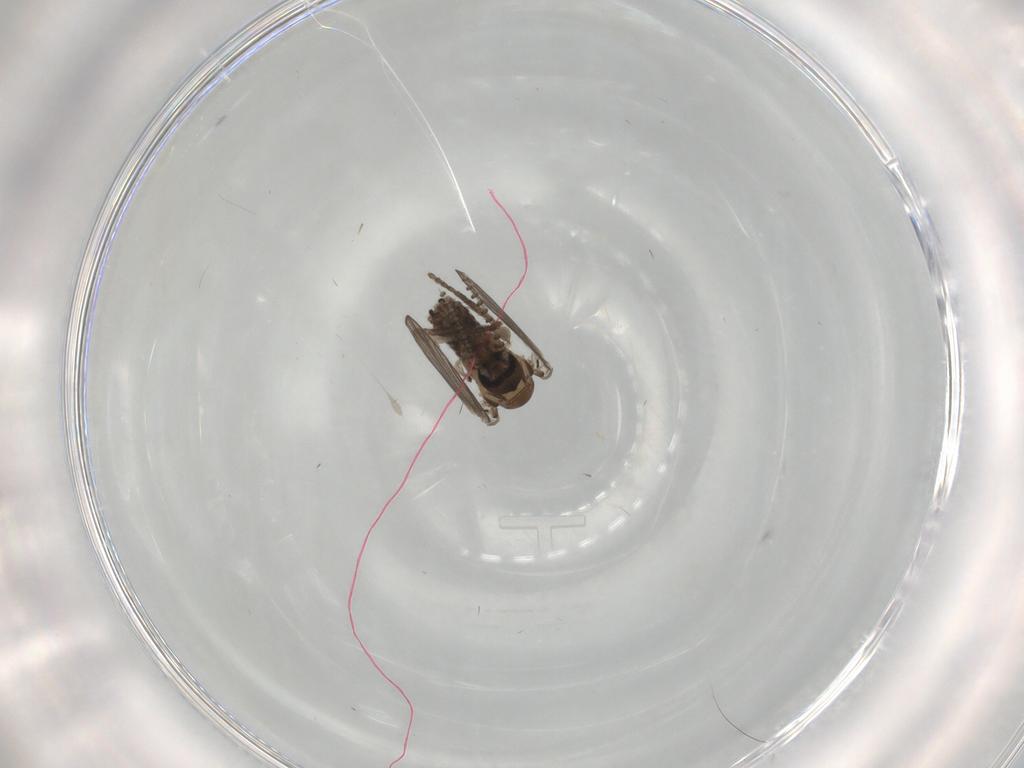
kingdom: Animalia
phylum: Arthropoda
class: Insecta
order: Diptera
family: Psychodidae
